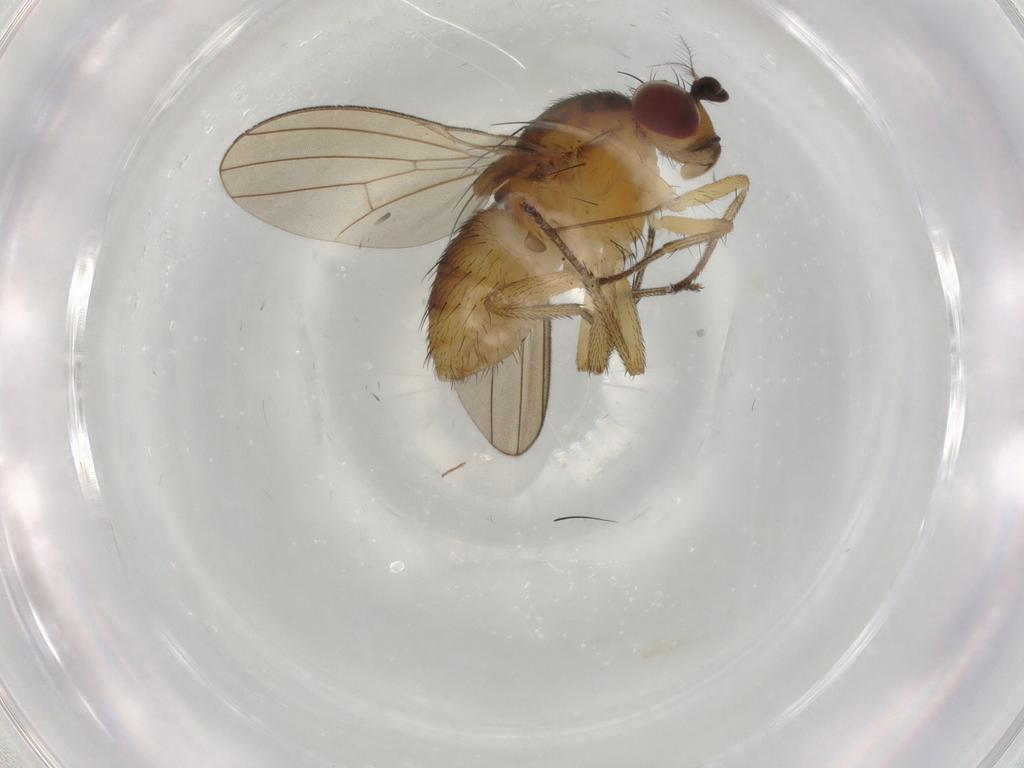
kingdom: Animalia
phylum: Arthropoda
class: Insecta
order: Diptera
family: Lauxaniidae
